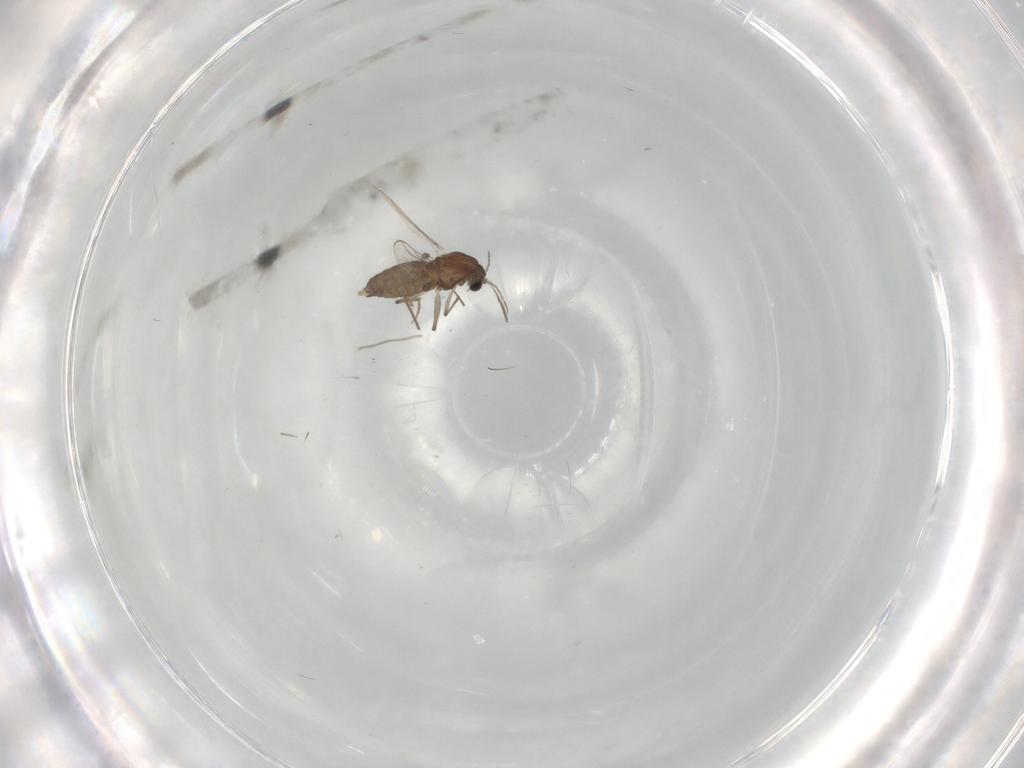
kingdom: Animalia
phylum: Arthropoda
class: Insecta
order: Diptera
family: Chironomidae
